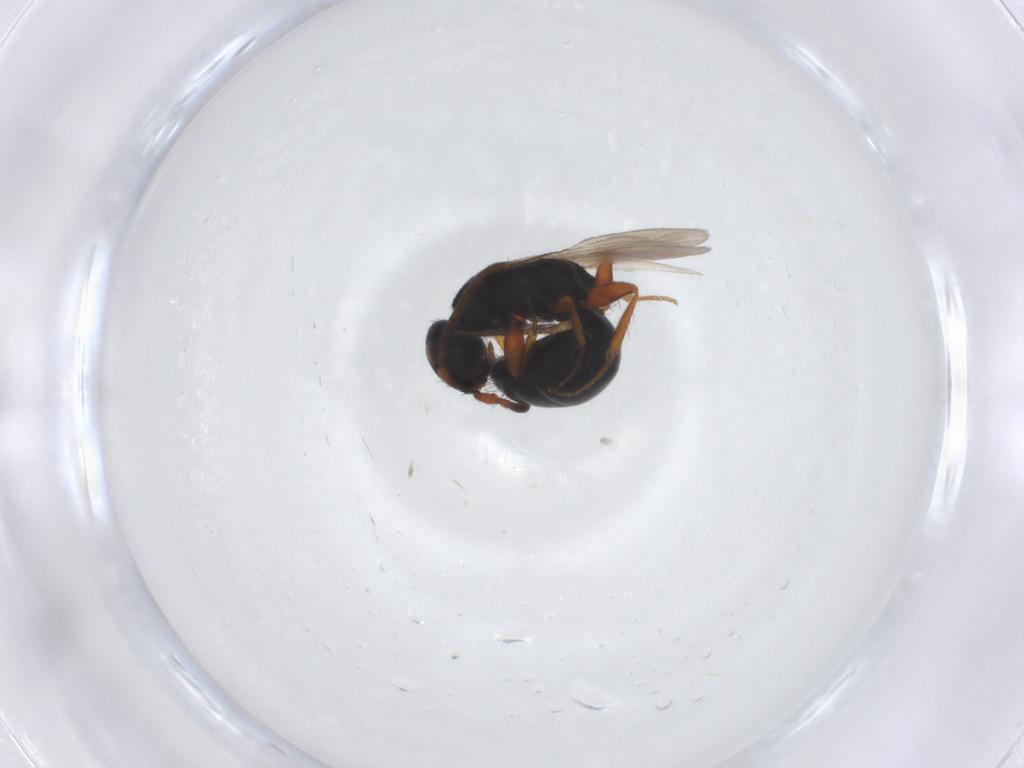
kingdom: Animalia
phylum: Arthropoda
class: Insecta
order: Hymenoptera
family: Bethylidae
